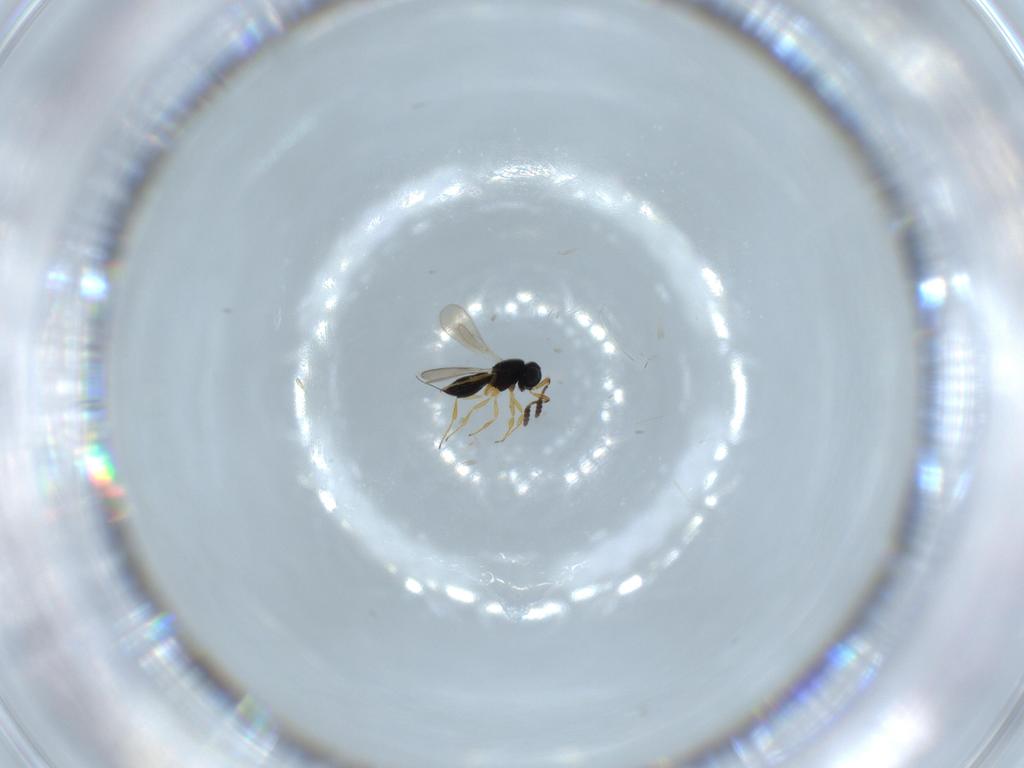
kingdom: Animalia
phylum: Arthropoda
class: Insecta
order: Hymenoptera
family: Scelionidae
